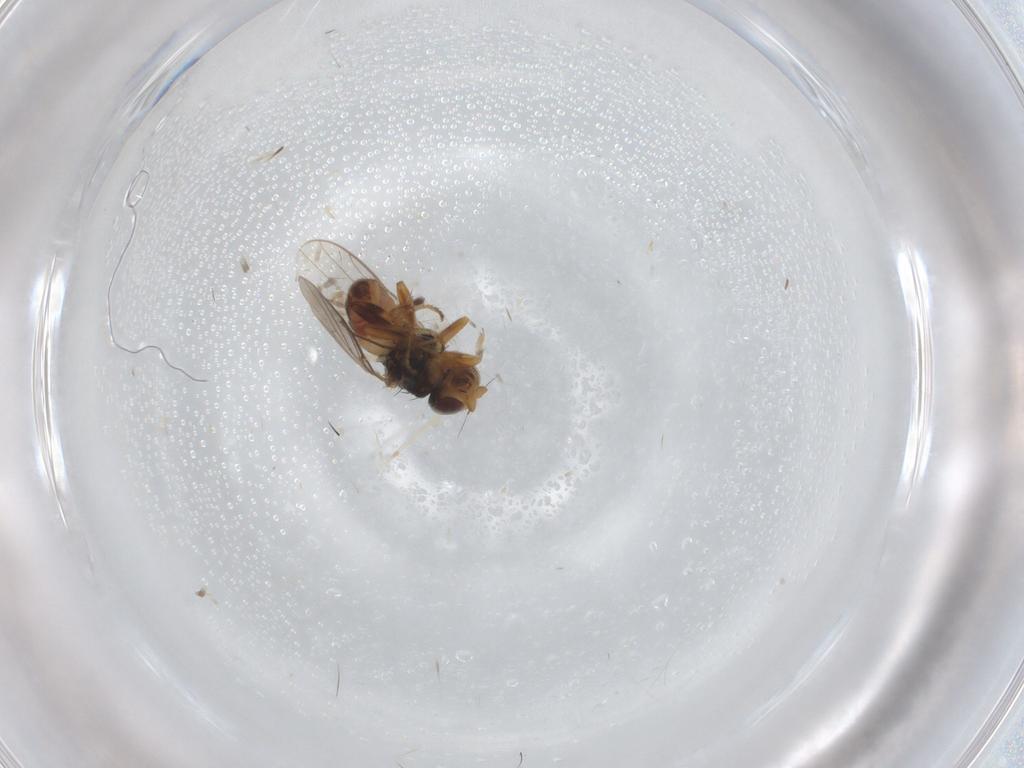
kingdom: Animalia
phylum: Arthropoda
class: Insecta
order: Diptera
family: Chloropidae
